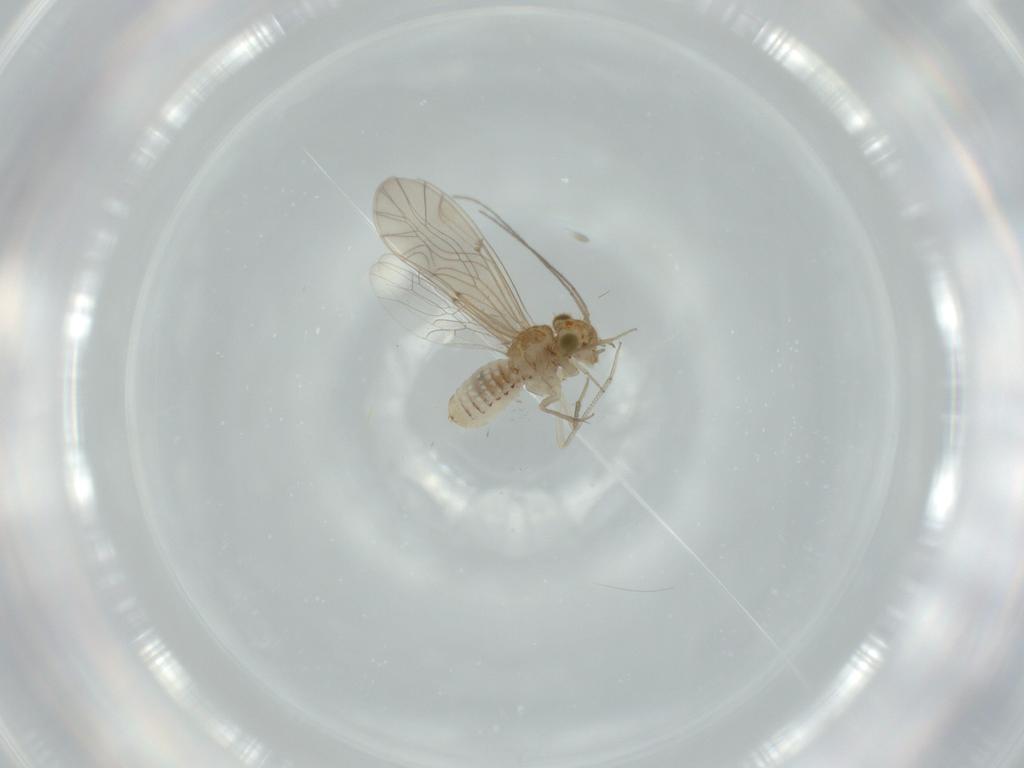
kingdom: Animalia
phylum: Arthropoda
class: Insecta
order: Psocodea
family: Lachesillidae
